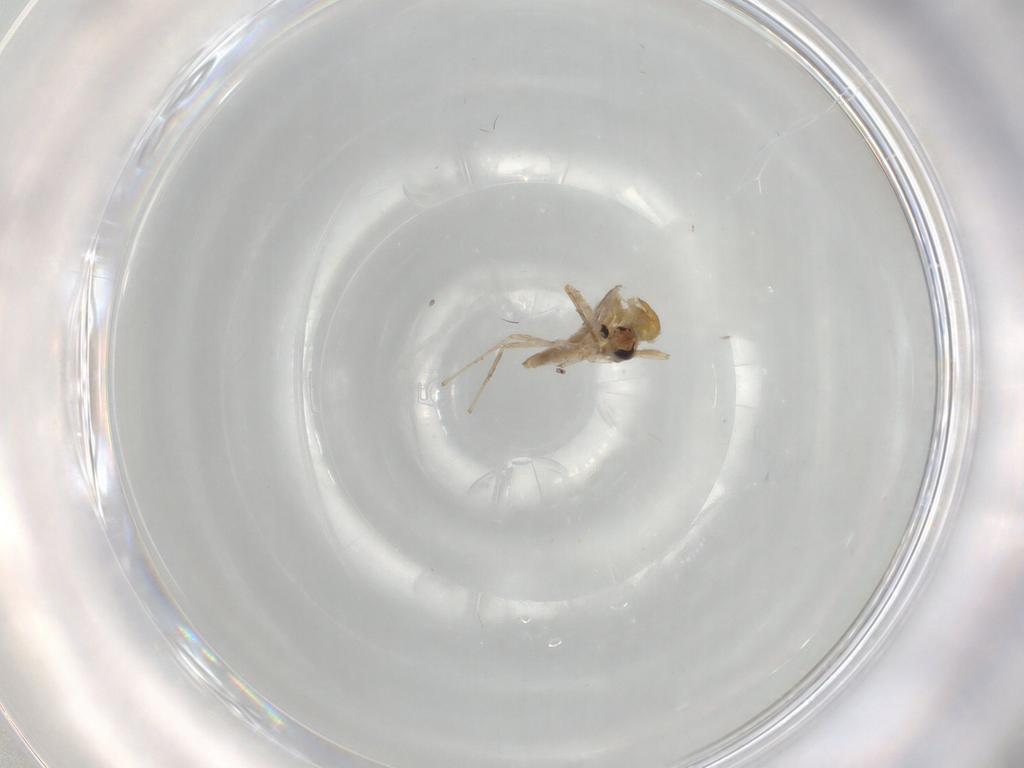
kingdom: Animalia
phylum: Arthropoda
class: Insecta
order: Diptera
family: Chironomidae
